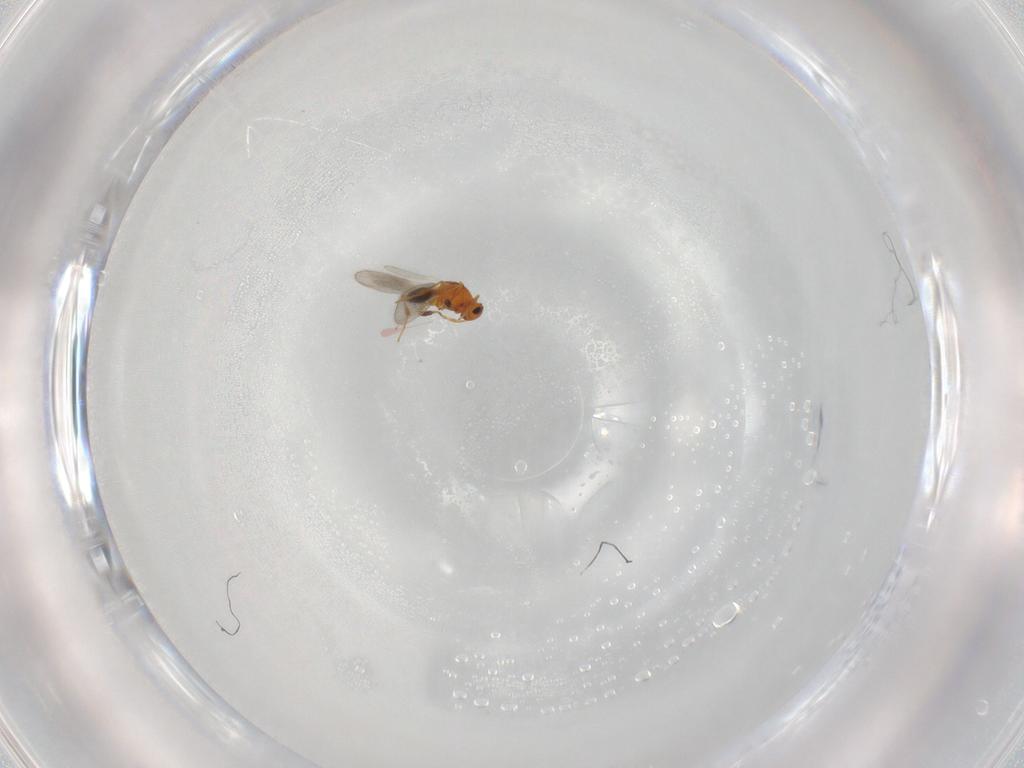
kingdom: Animalia
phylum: Arthropoda
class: Insecta
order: Hymenoptera
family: Platygastridae
